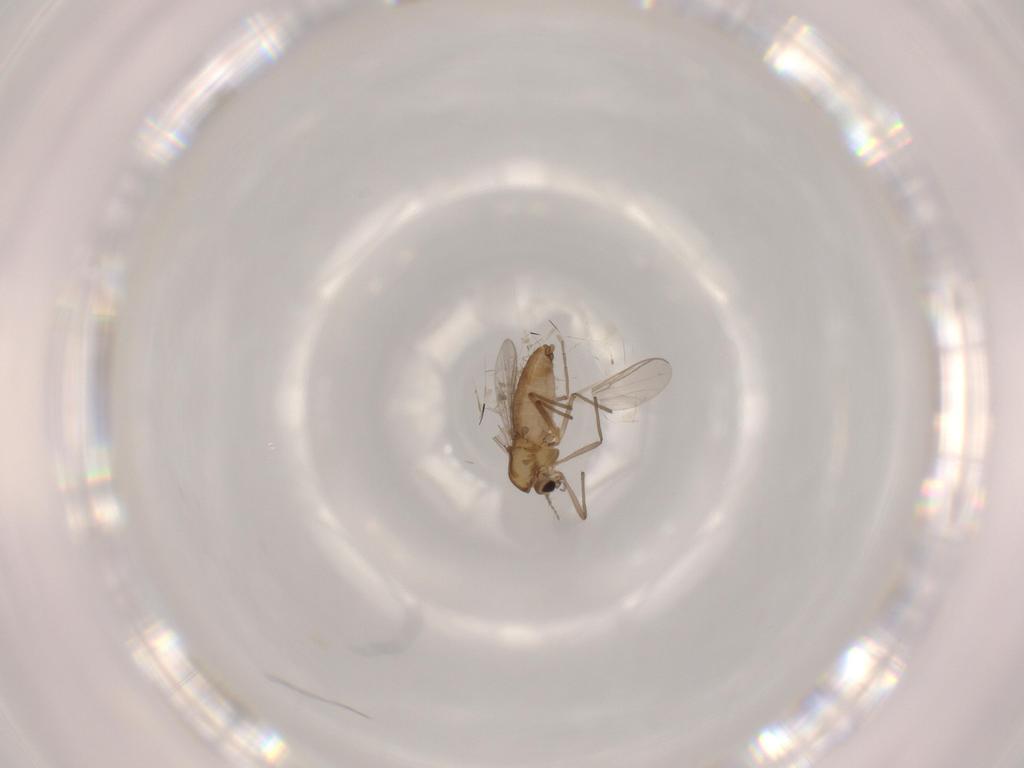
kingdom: Animalia
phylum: Arthropoda
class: Insecta
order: Diptera
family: Chironomidae
